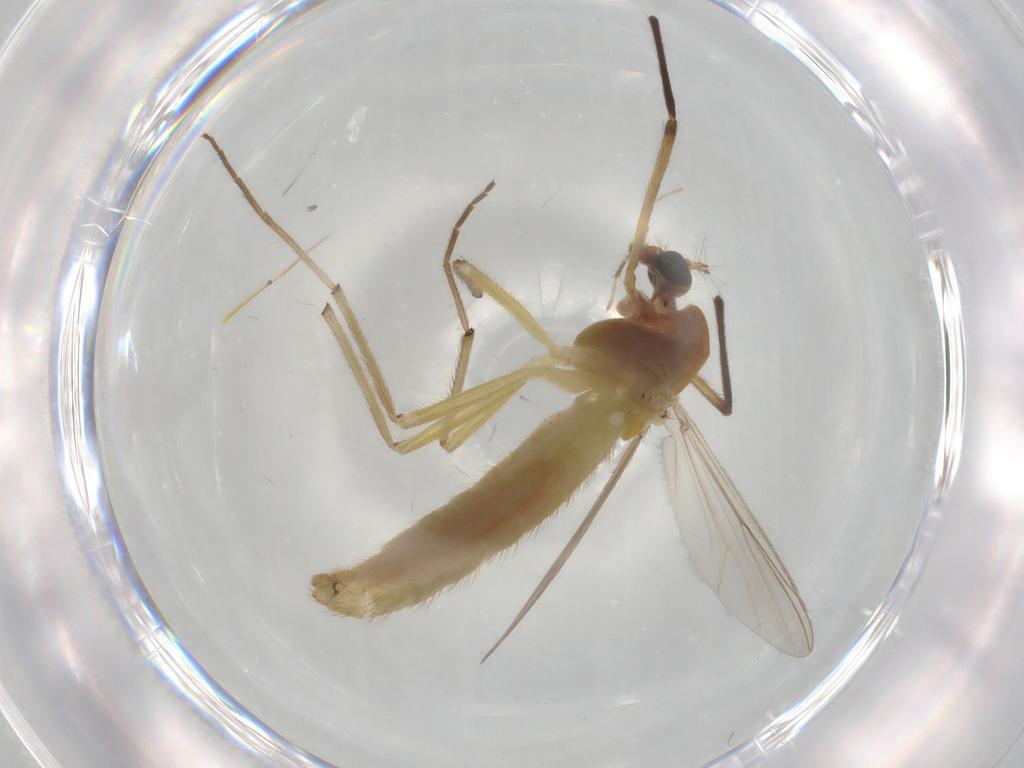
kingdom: Animalia
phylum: Arthropoda
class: Insecta
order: Diptera
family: Chironomidae
